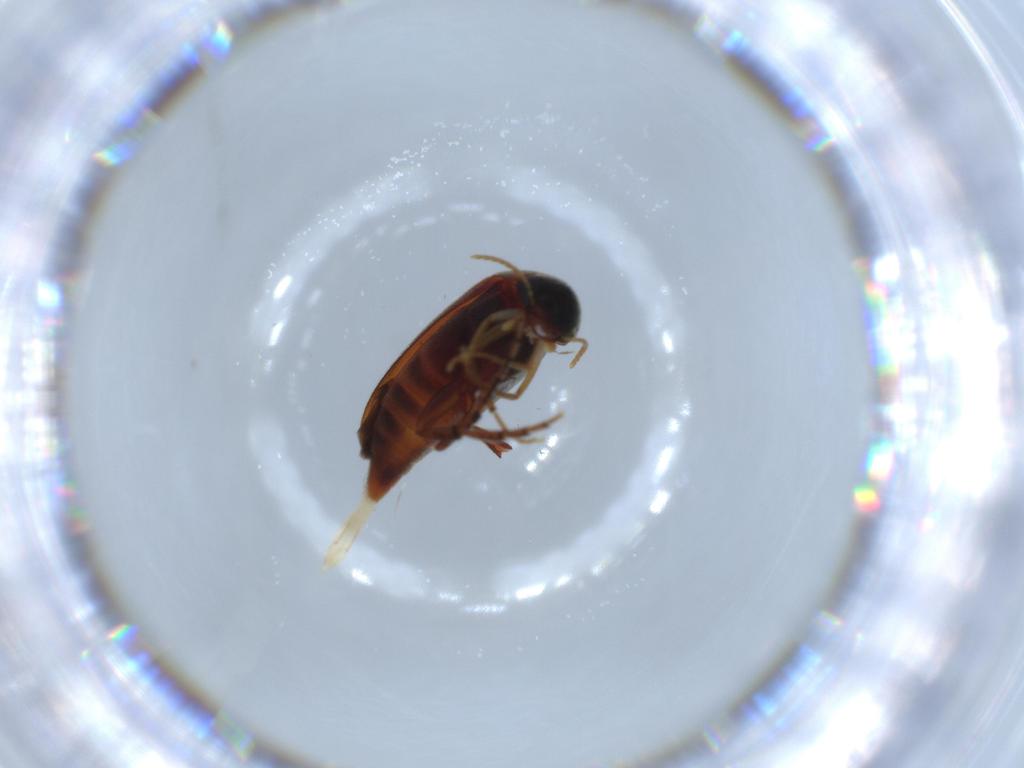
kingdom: Animalia
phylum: Arthropoda
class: Insecta
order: Coleoptera
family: Mordellidae
